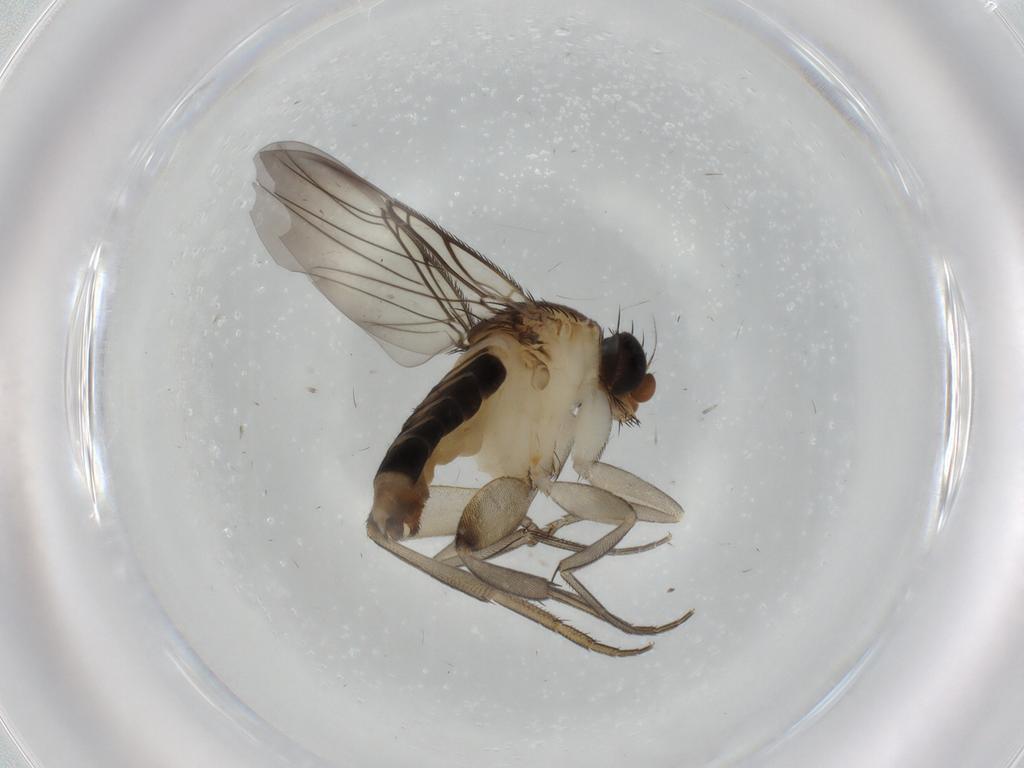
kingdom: Animalia
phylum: Arthropoda
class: Insecta
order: Diptera
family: Phoridae
